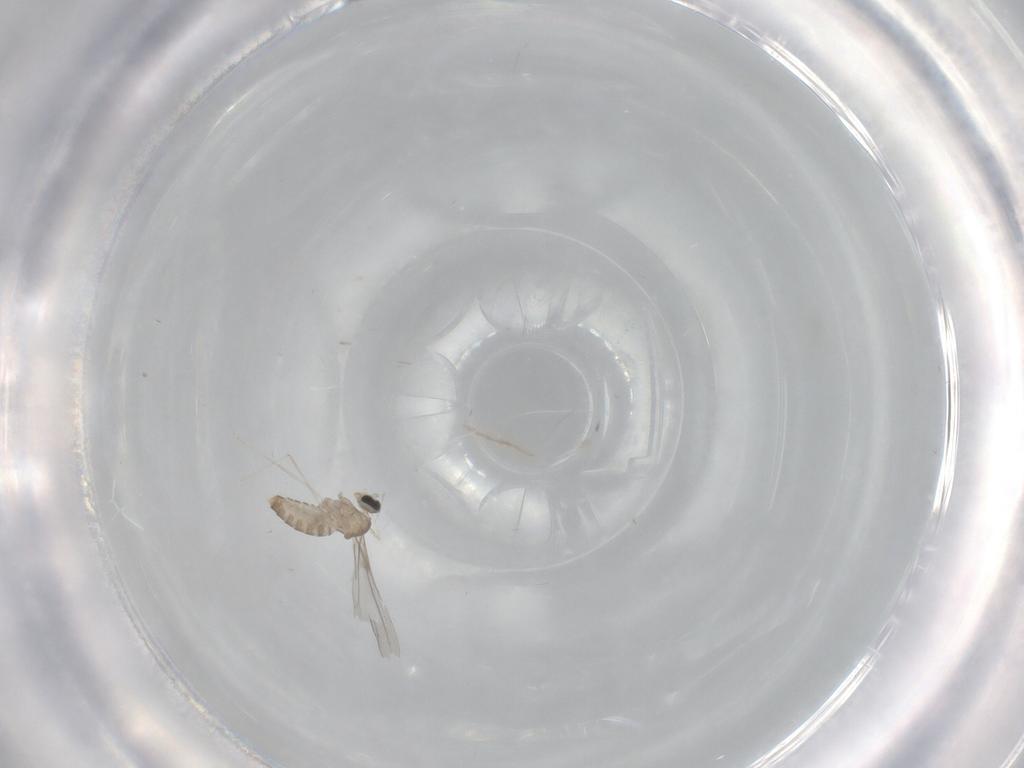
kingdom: Animalia
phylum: Arthropoda
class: Insecta
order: Diptera
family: Cecidomyiidae
